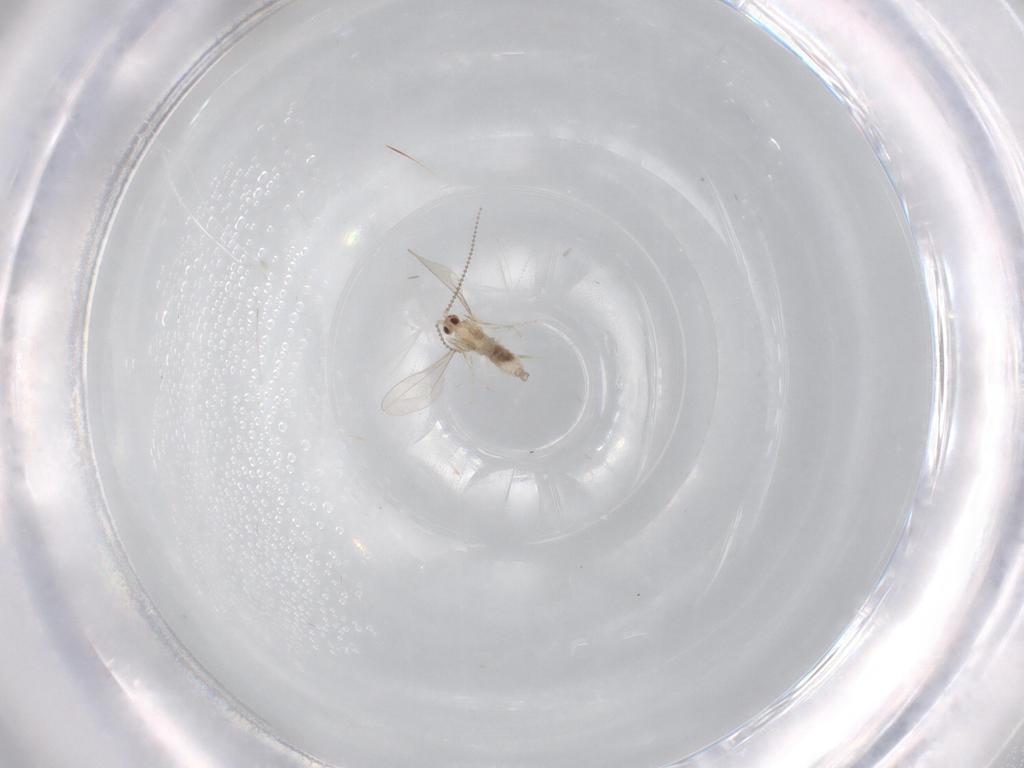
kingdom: Animalia
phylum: Arthropoda
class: Insecta
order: Diptera
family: Cecidomyiidae
